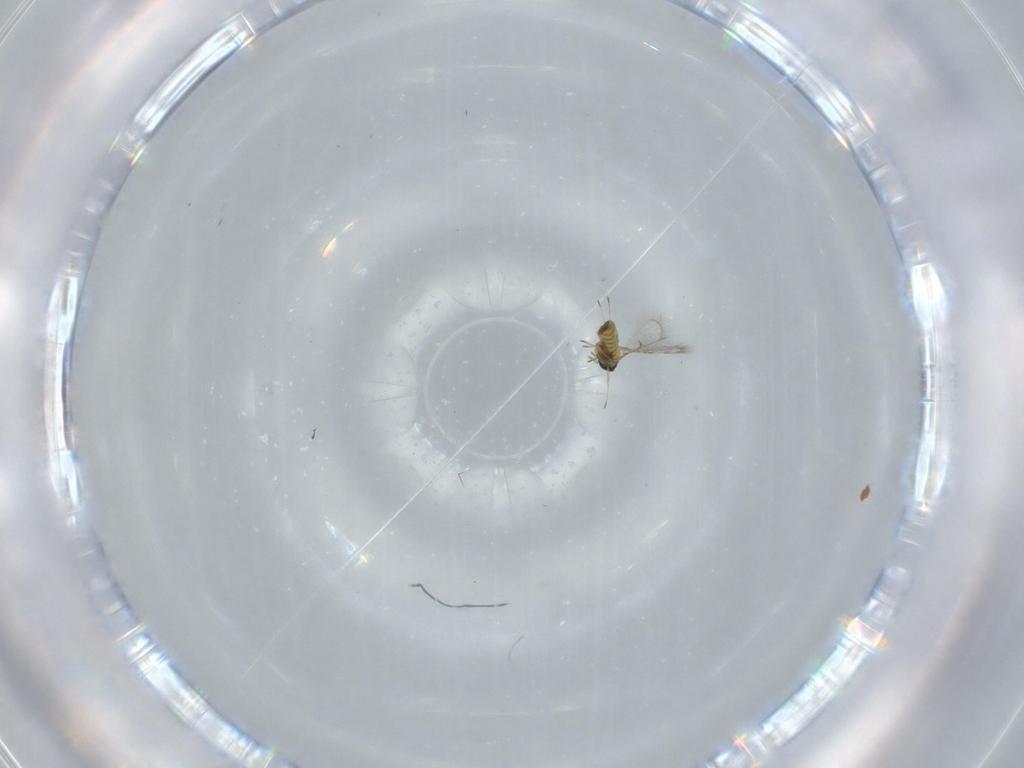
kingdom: Animalia
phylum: Arthropoda
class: Insecta
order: Hymenoptera
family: Trichogrammatidae
